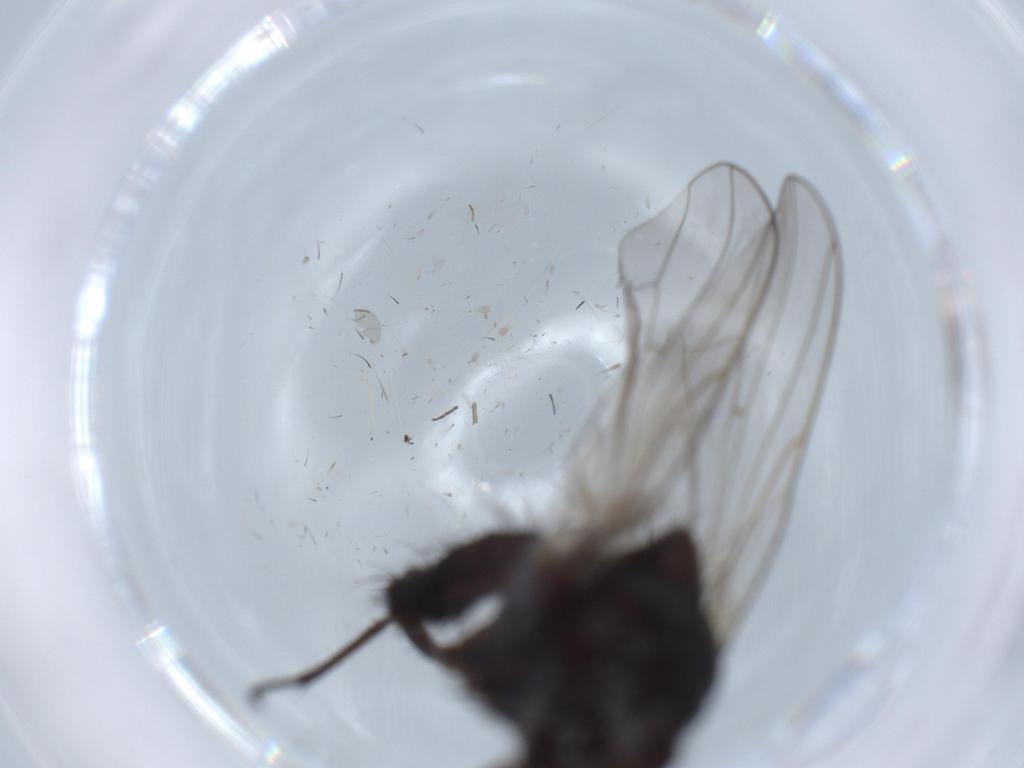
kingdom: Animalia
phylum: Arthropoda
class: Insecta
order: Diptera
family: Anthomyiidae
